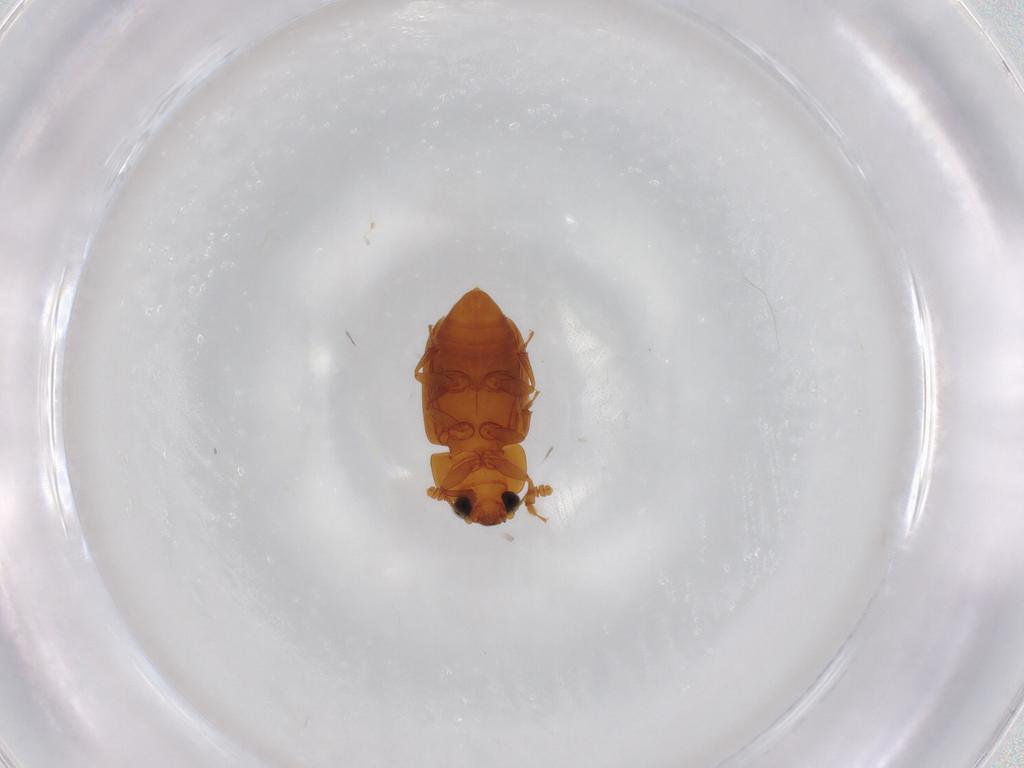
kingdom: Animalia
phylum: Arthropoda
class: Insecta
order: Coleoptera
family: Nitidulidae
